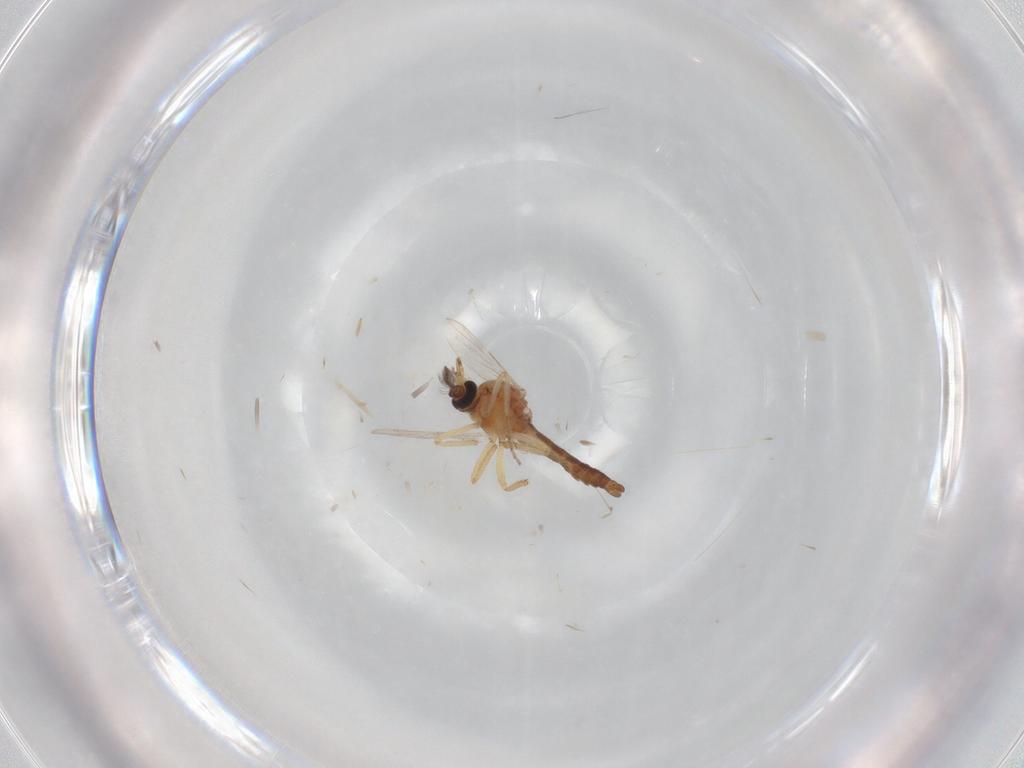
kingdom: Animalia
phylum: Arthropoda
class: Insecta
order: Diptera
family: Ceratopogonidae
